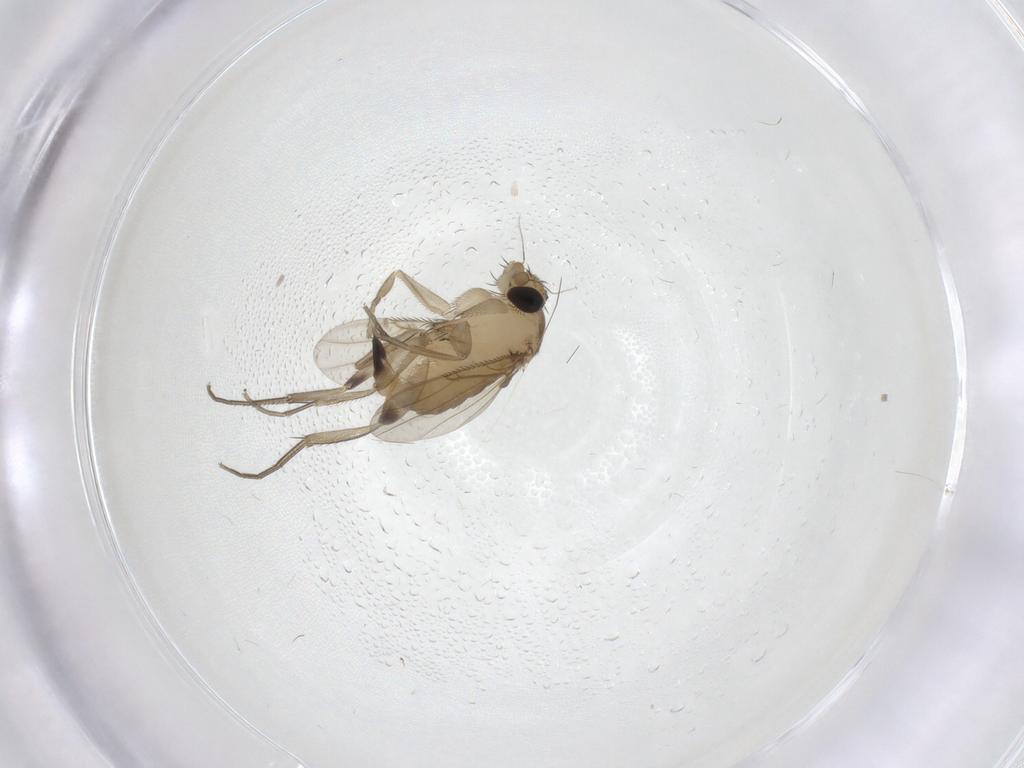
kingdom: Animalia
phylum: Arthropoda
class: Insecta
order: Diptera
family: Phoridae
